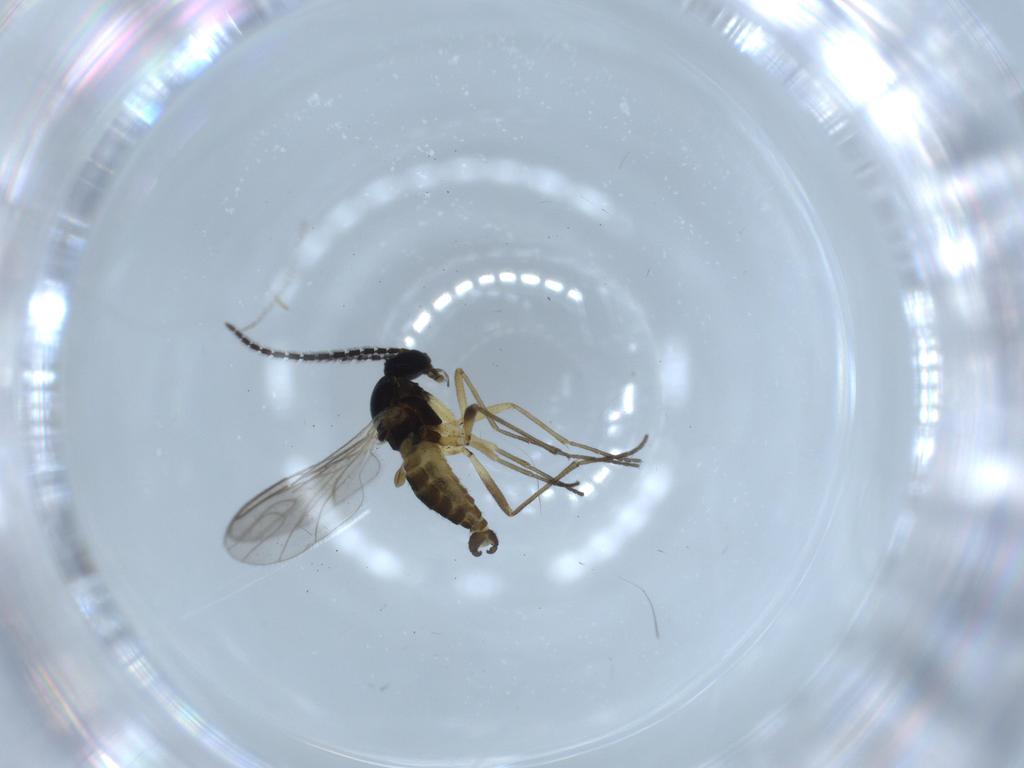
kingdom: Animalia
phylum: Arthropoda
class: Insecta
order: Diptera
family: Sciaridae
